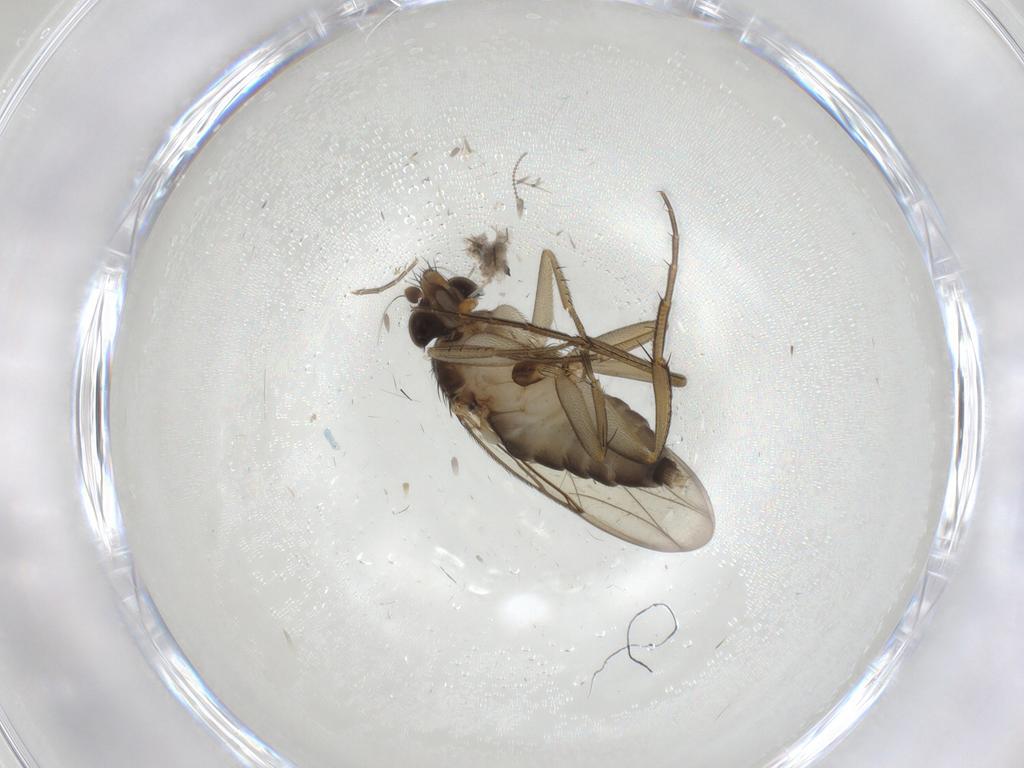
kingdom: Animalia
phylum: Arthropoda
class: Insecta
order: Diptera
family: Phoridae
